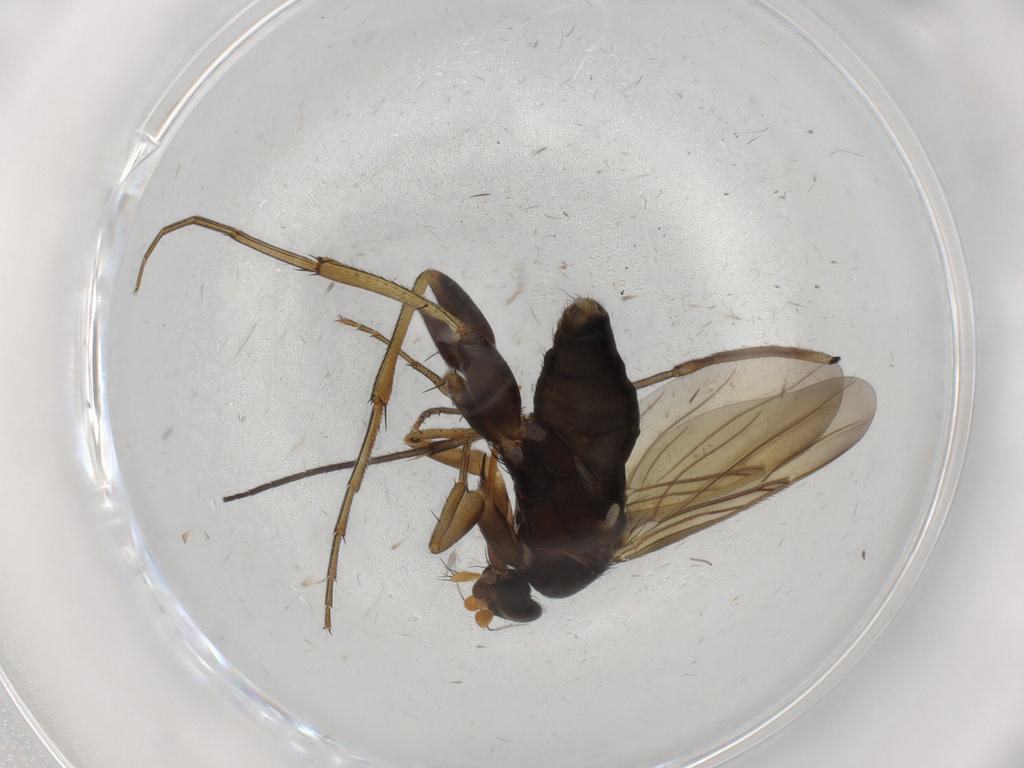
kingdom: Animalia
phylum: Arthropoda
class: Insecta
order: Diptera
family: Phoridae
